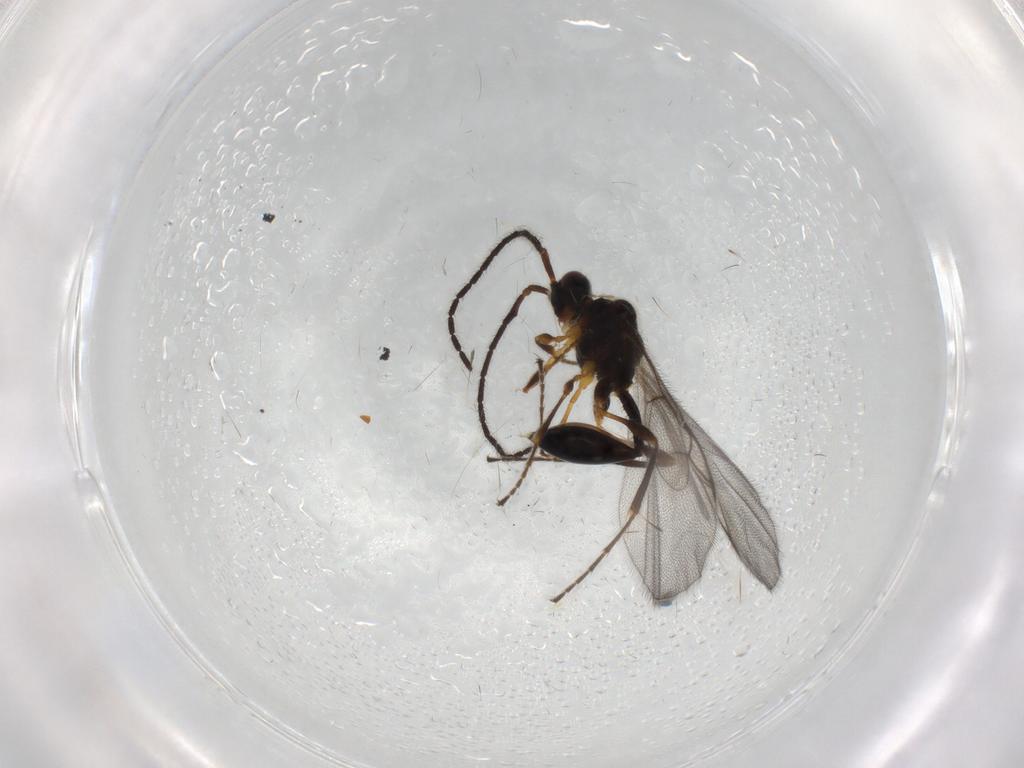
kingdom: Animalia
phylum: Arthropoda
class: Insecta
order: Hymenoptera
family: Diapriidae
